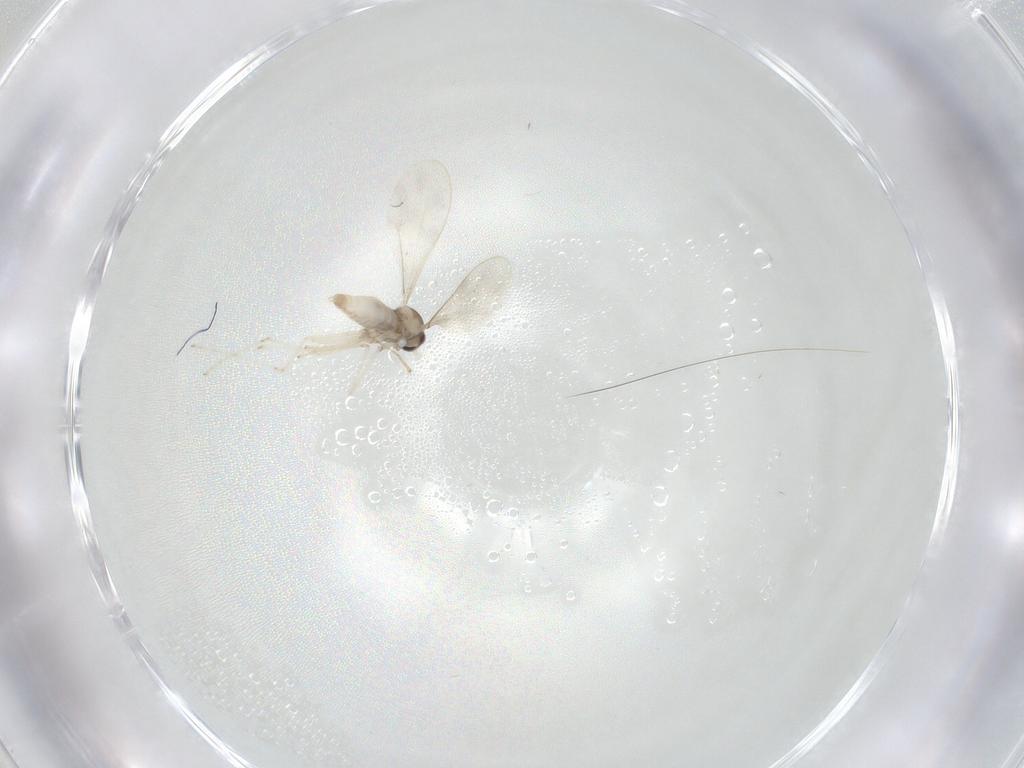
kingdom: Animalia
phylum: Arthropoda
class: Insecta
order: Diptera
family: Cecidomyiidae
